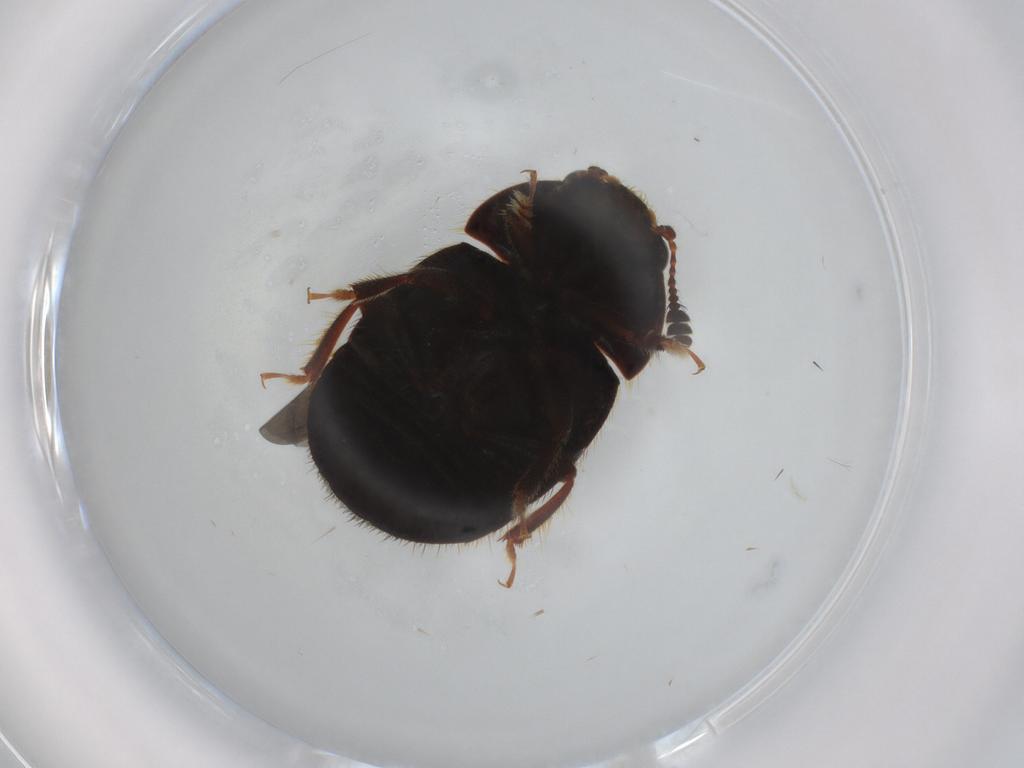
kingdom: Animalia
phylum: Arthropoda
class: Insecta
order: Coleoptera
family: Nitidulidae
